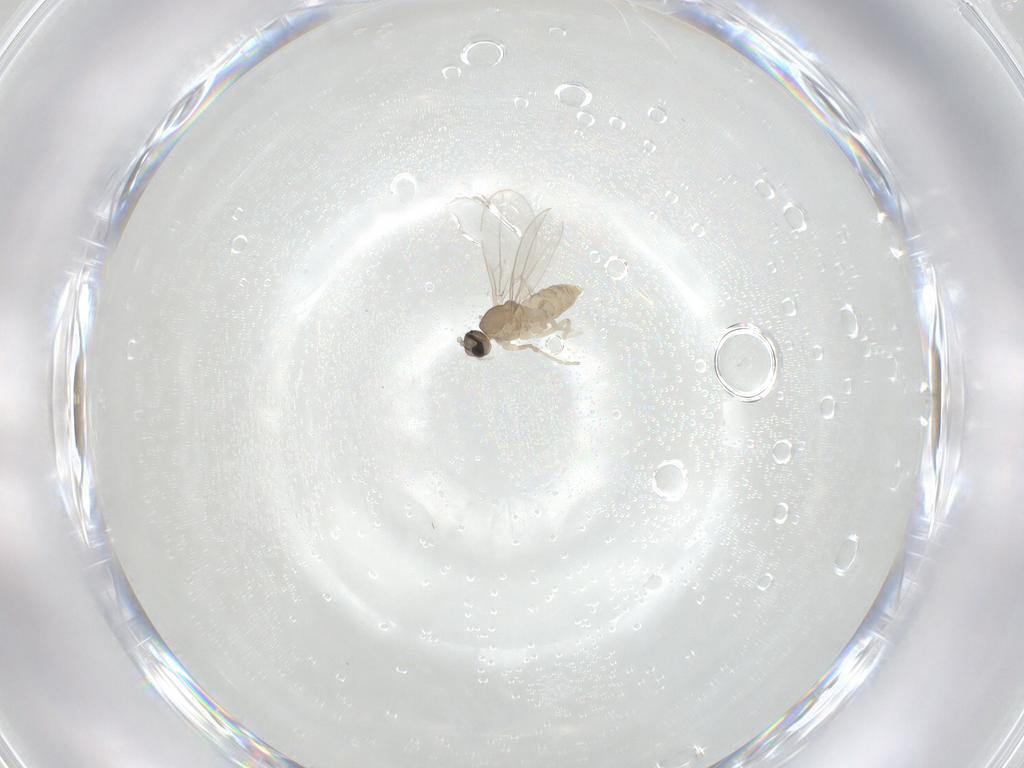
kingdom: Animalia
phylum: Arthropoda
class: Insecta
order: Diptera
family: Cecidomyiidae
